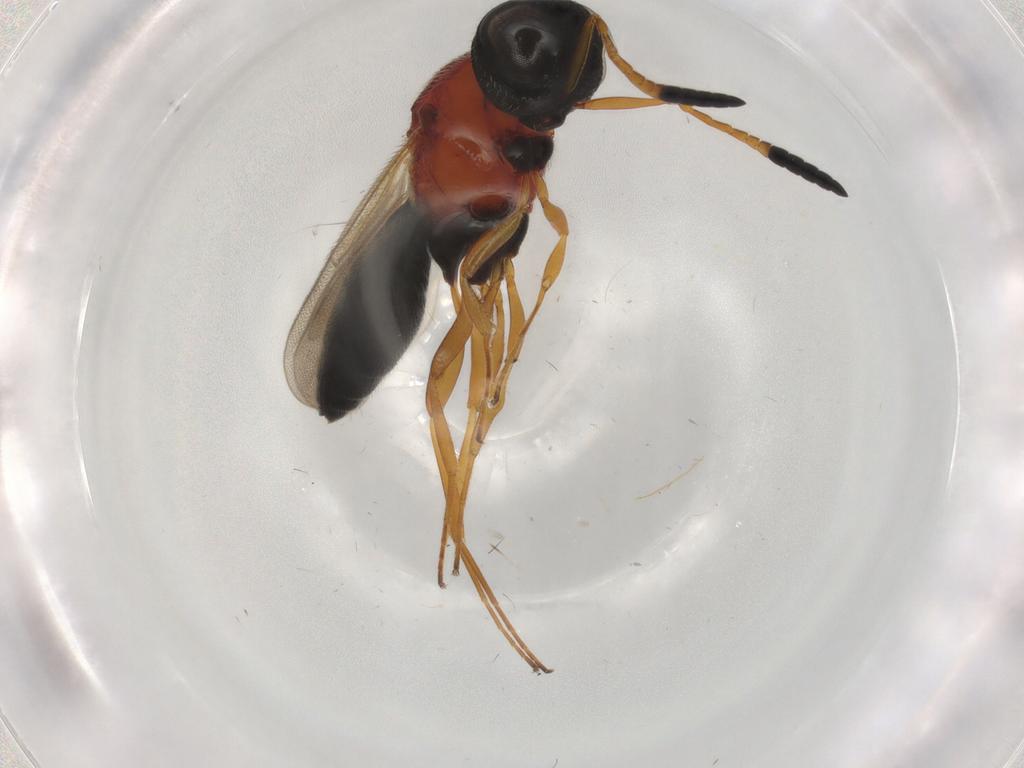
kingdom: Animalia
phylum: Arthropoda
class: Insecta
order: Hymenoptera
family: Scelionidae
